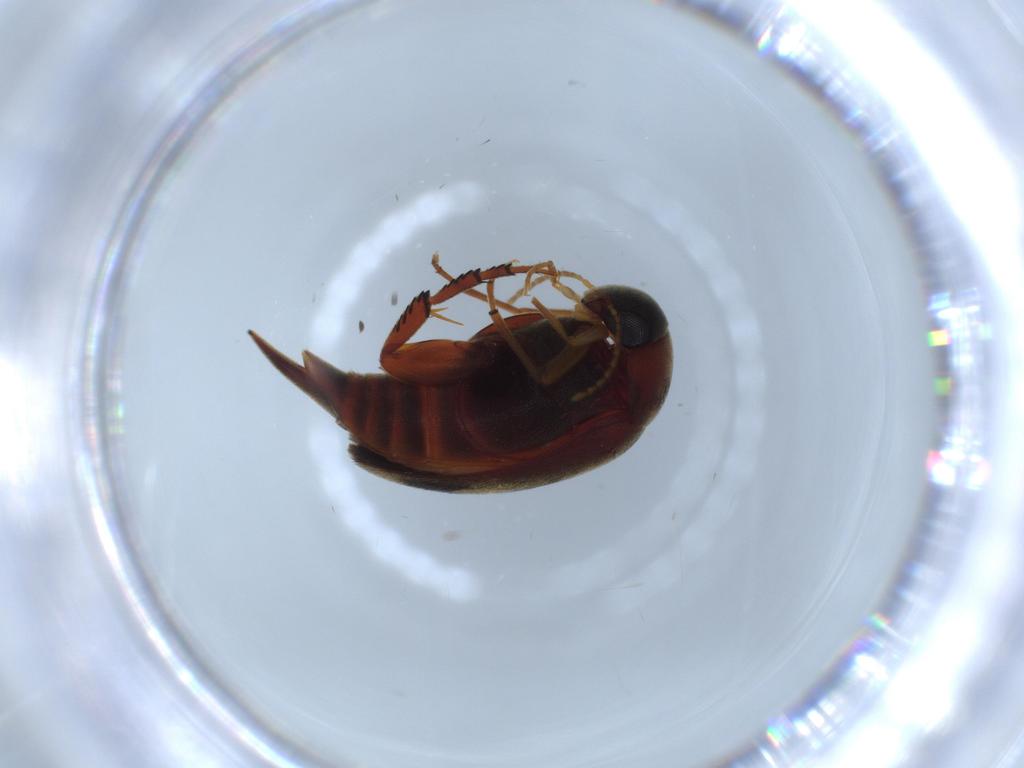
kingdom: Animalia
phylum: Arthropoda
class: Insecta
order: Coleoptera
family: Mordellidae
